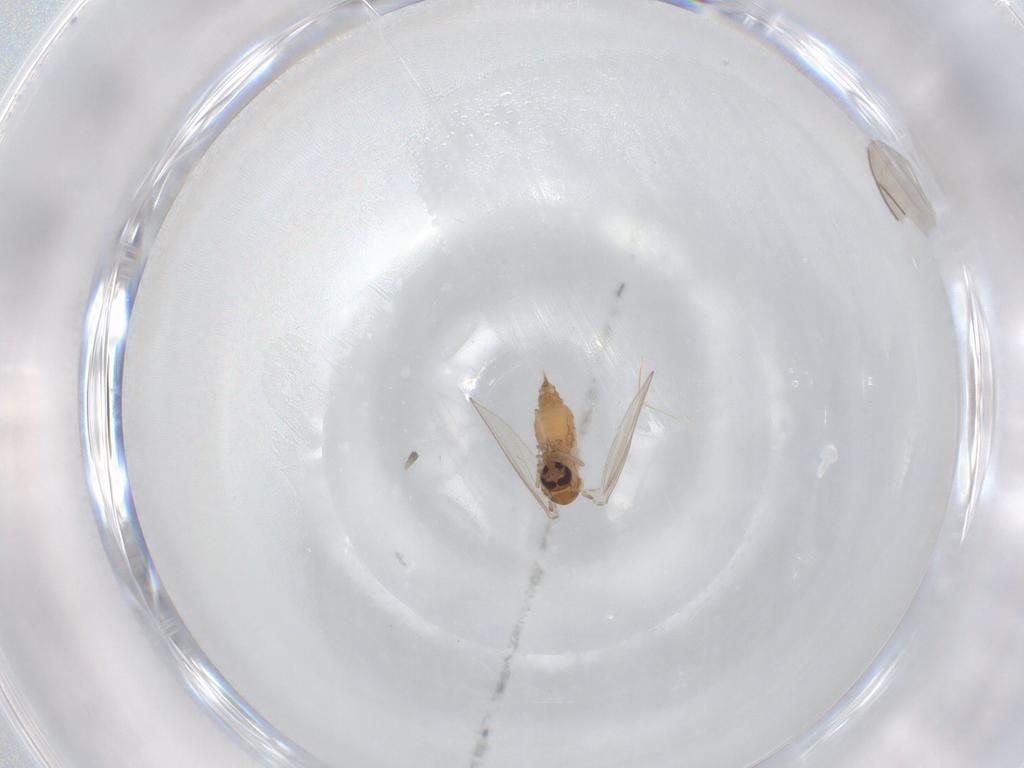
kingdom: Animalia
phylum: Arthropoda
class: Insecta
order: Diptera
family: Psychodidae
